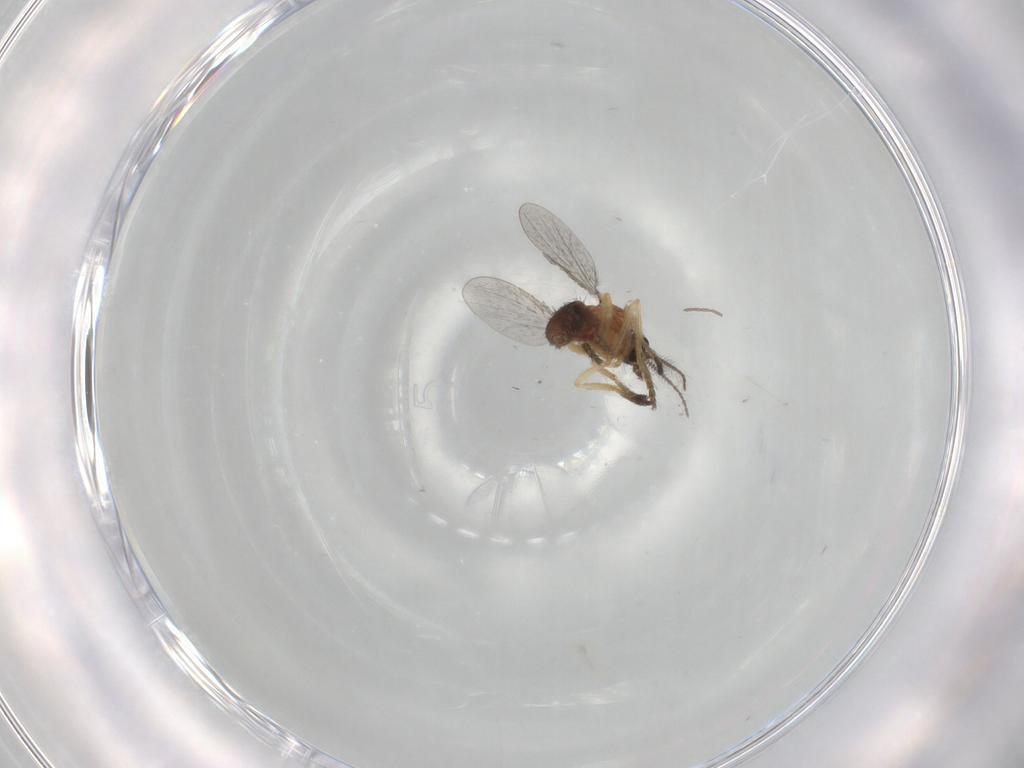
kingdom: Animalia
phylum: Arthropoda
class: Insecta
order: Diptera
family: Ceratopogonidae
